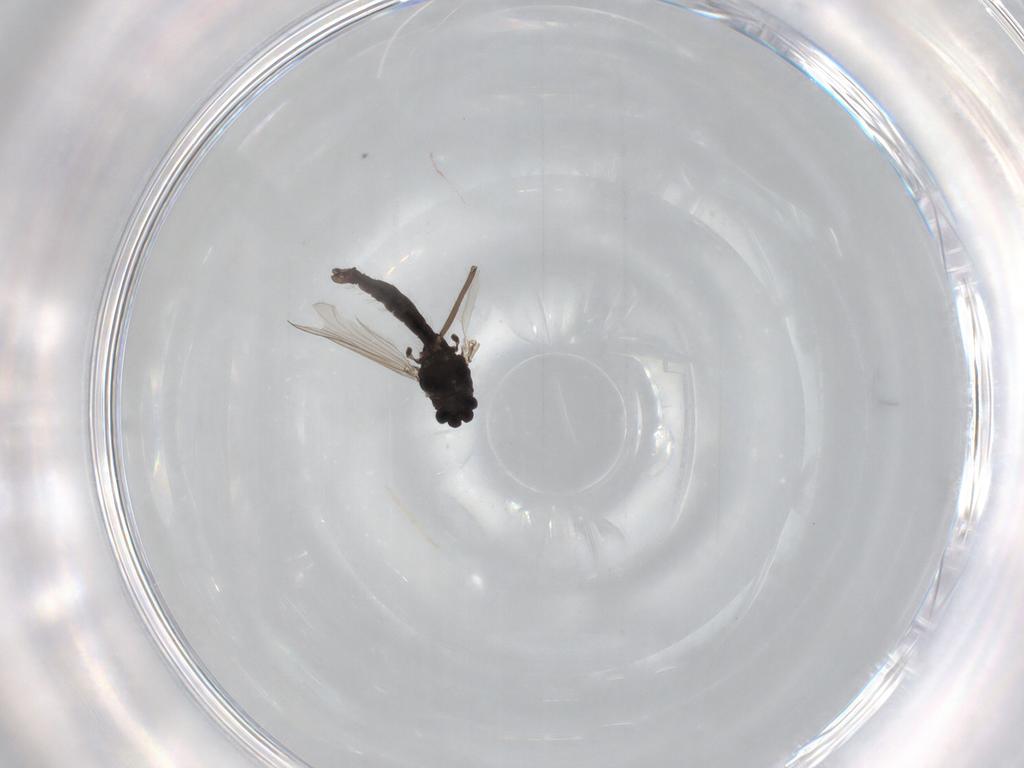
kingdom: Animalia
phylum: Arthropoda
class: Insecta
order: Diptera
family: Chironomidae
